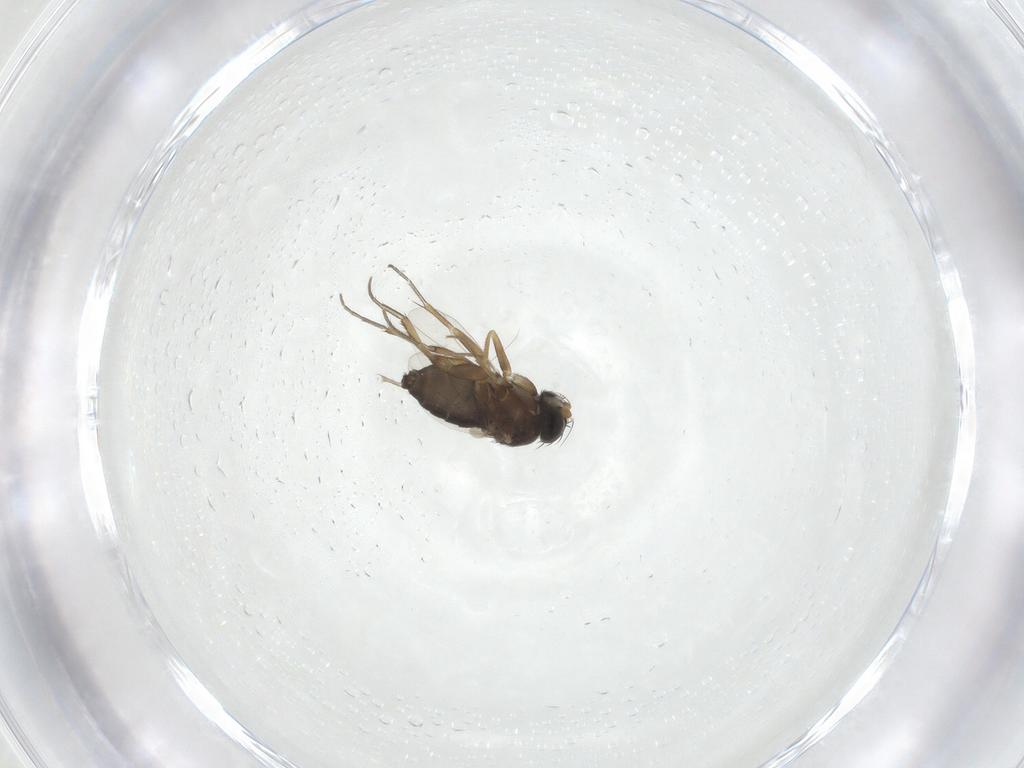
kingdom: Animalia
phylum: Arthropoda
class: Insecta
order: Diptera
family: Phoridae
